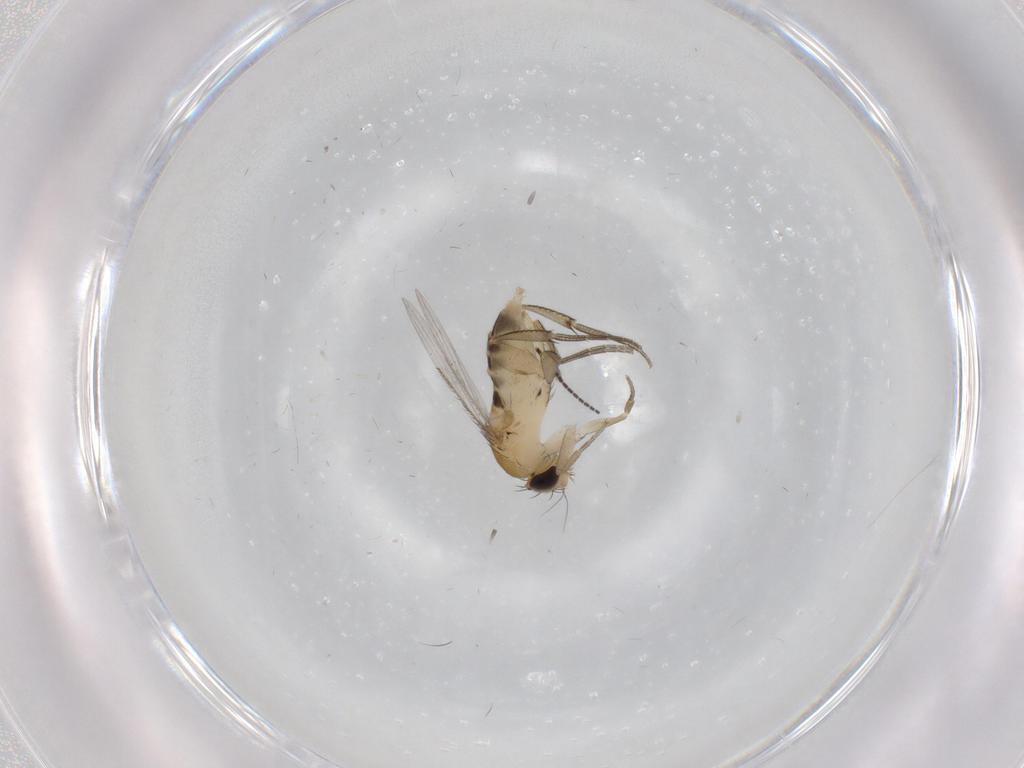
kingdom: Animalia
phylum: Arthropoda
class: Insecta
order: Diptera
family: Sciaridae
